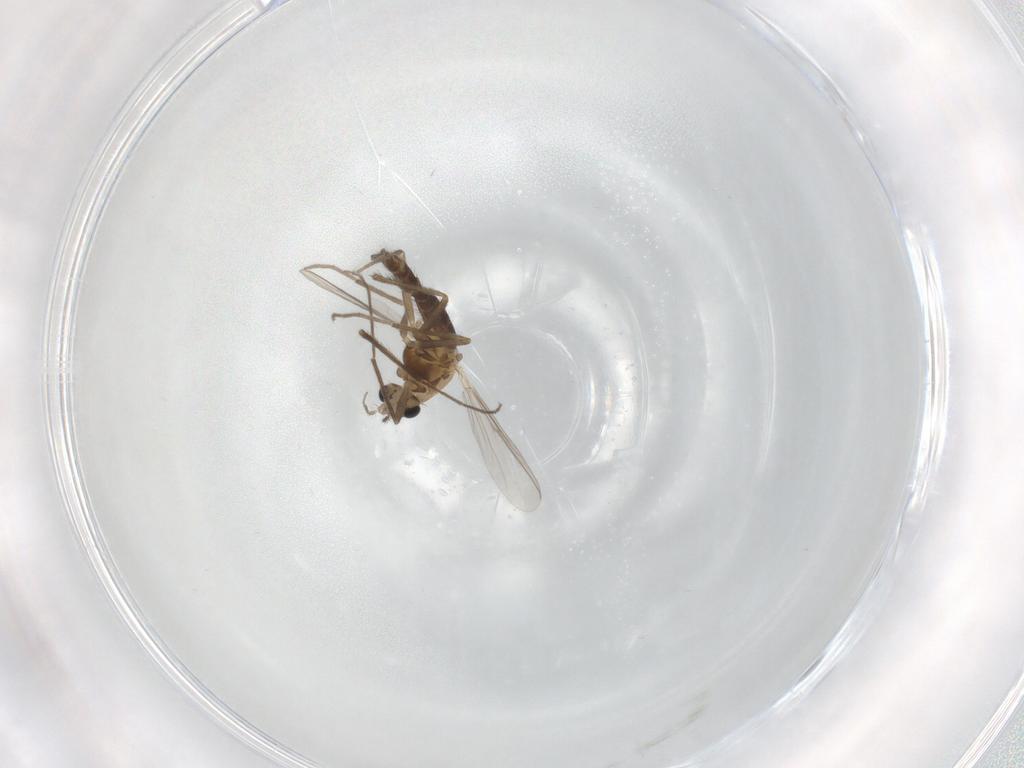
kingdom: Animalia
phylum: Arthropoda
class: Insecta
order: Diptera
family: Chironomidae
